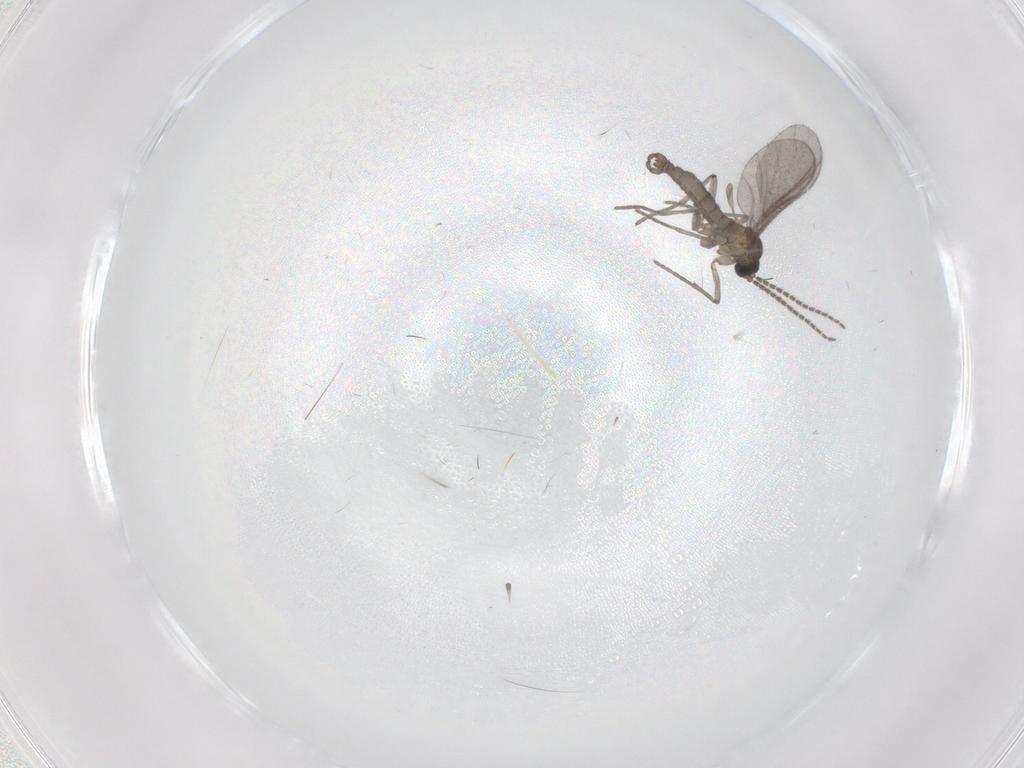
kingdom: Animalia
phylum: Arthropoda
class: Insecta
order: Diptera
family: Sciaridae
